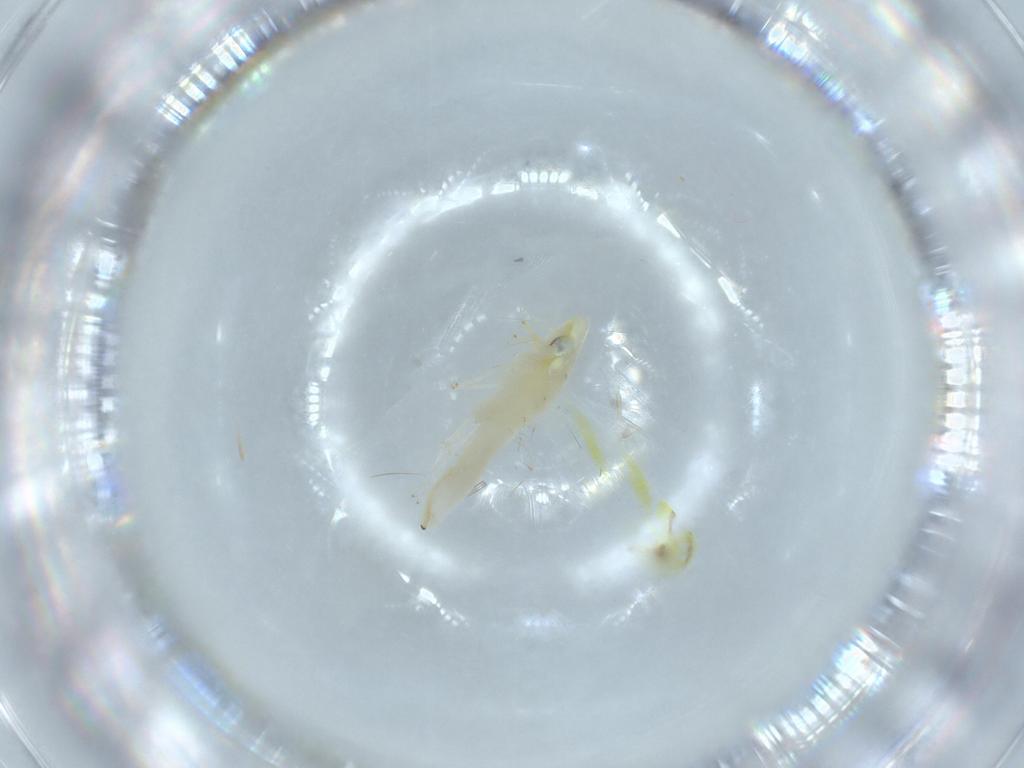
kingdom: Animalia
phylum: Arthropoda
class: Insecta
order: Hemiptera
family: Cicadellidae
